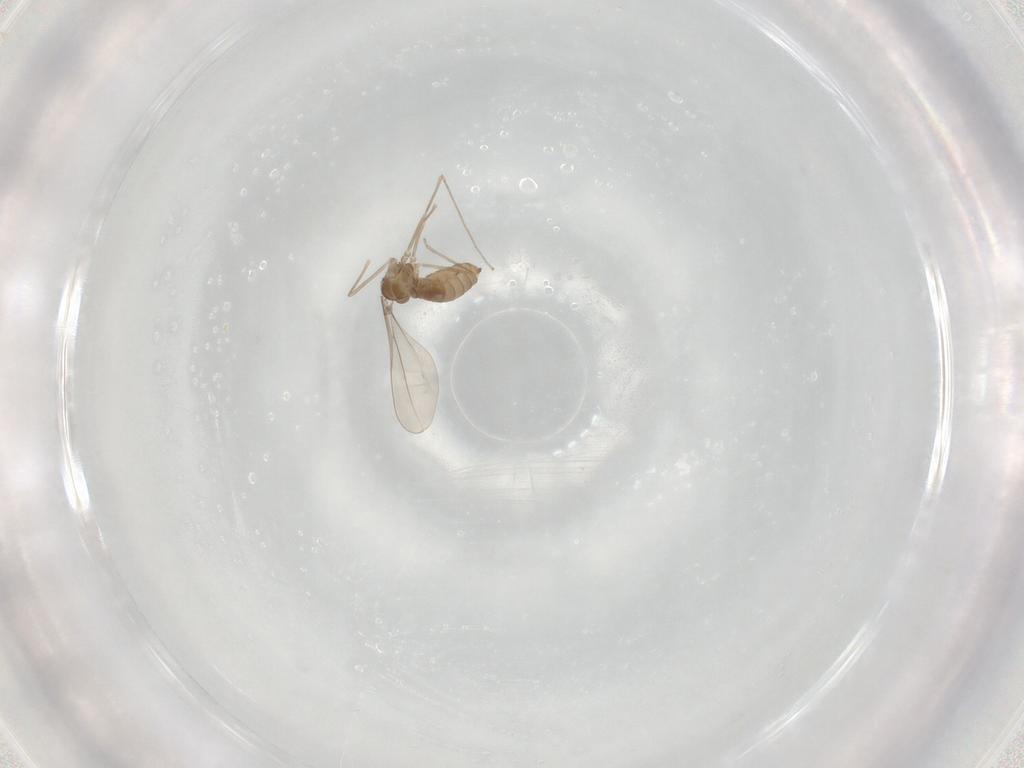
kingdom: Animalia
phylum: Arthropoda
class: Insecta
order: Diptera
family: Cecidomyiidae
